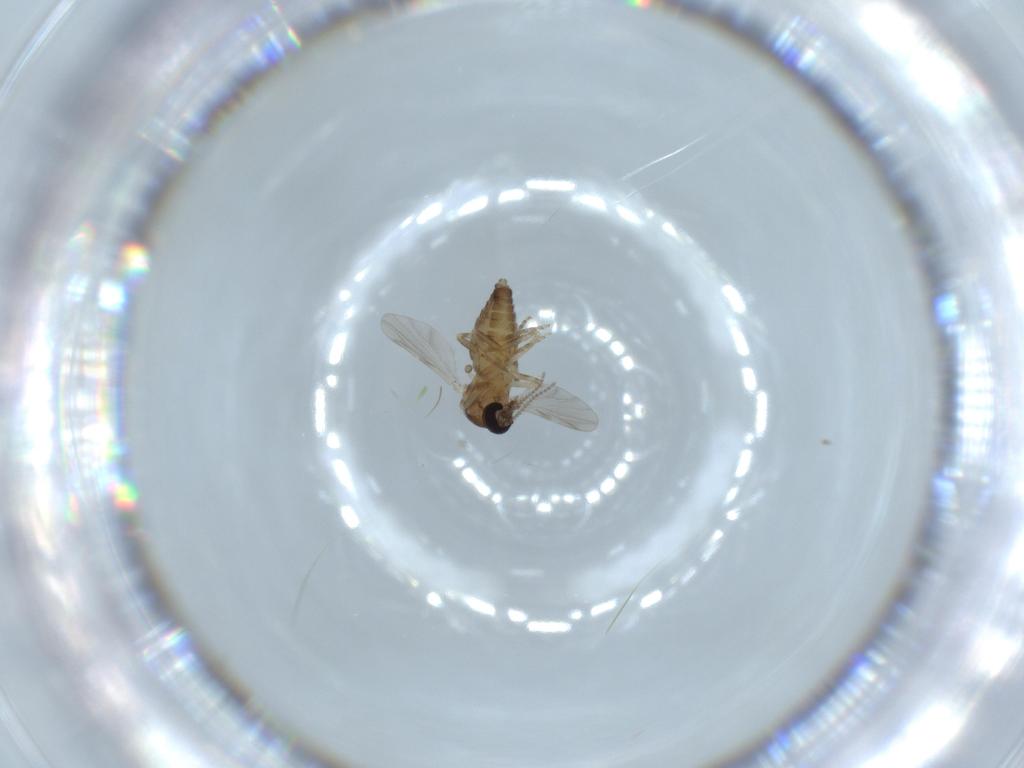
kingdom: Animalia
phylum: Arthropoda
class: Insecta
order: Diptera
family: Ceratopogonidae
